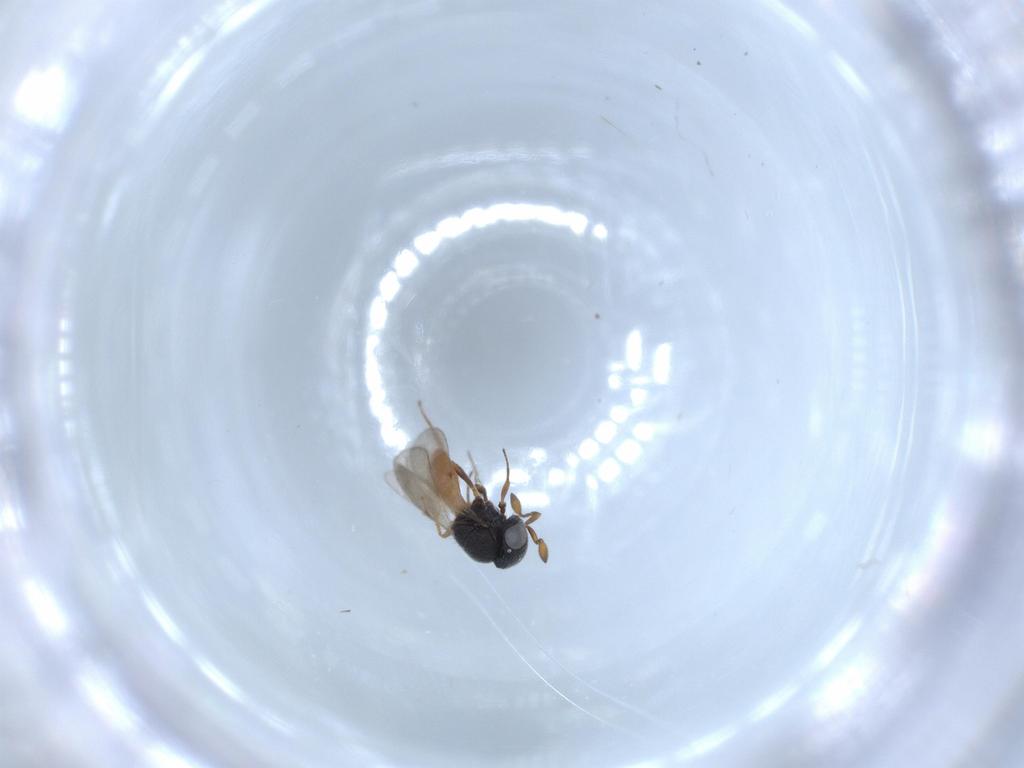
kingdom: Animalia
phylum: Arthropoda
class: Insecta
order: Hymenoptera
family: Scelionidae
